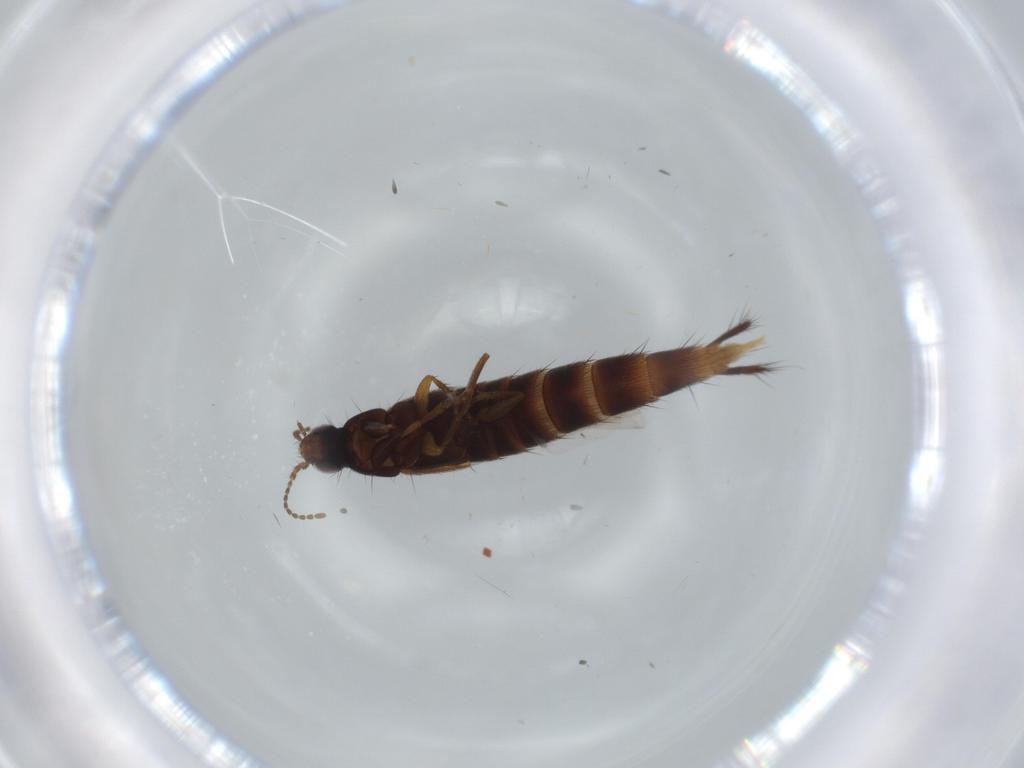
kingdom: Animalia
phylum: Arthropoda
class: Insecta
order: Coleoptera
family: Staphylinidae
